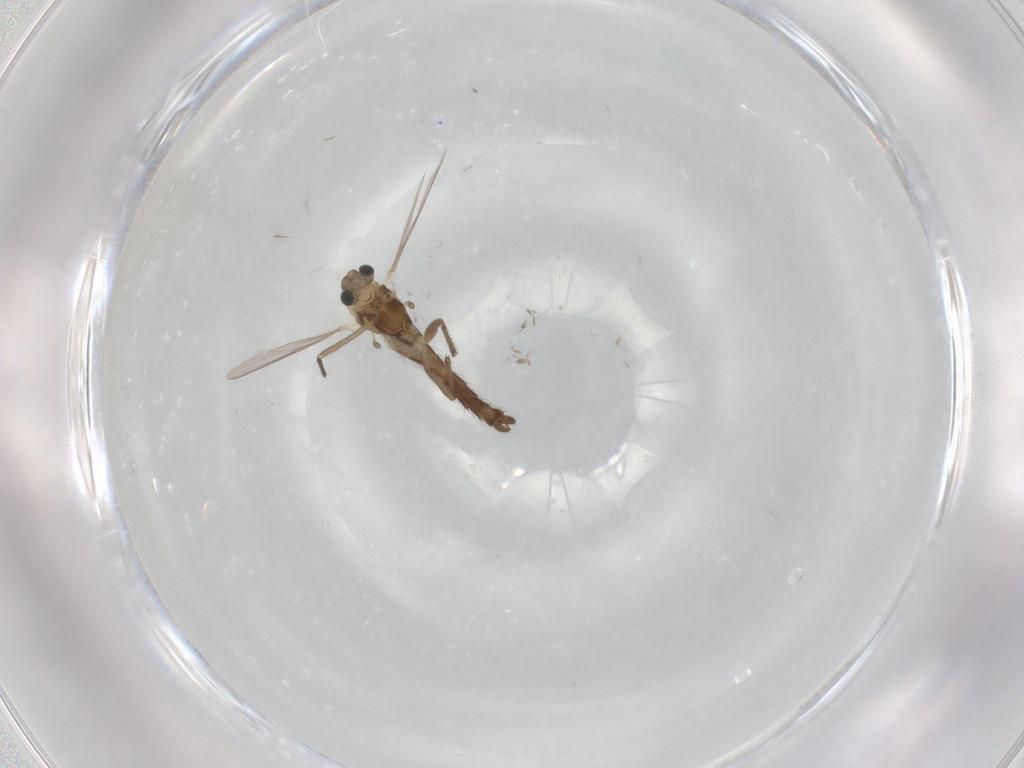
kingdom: Animalia
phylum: Arthropoda
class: Insecta
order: Diptera
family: Chironomidae
